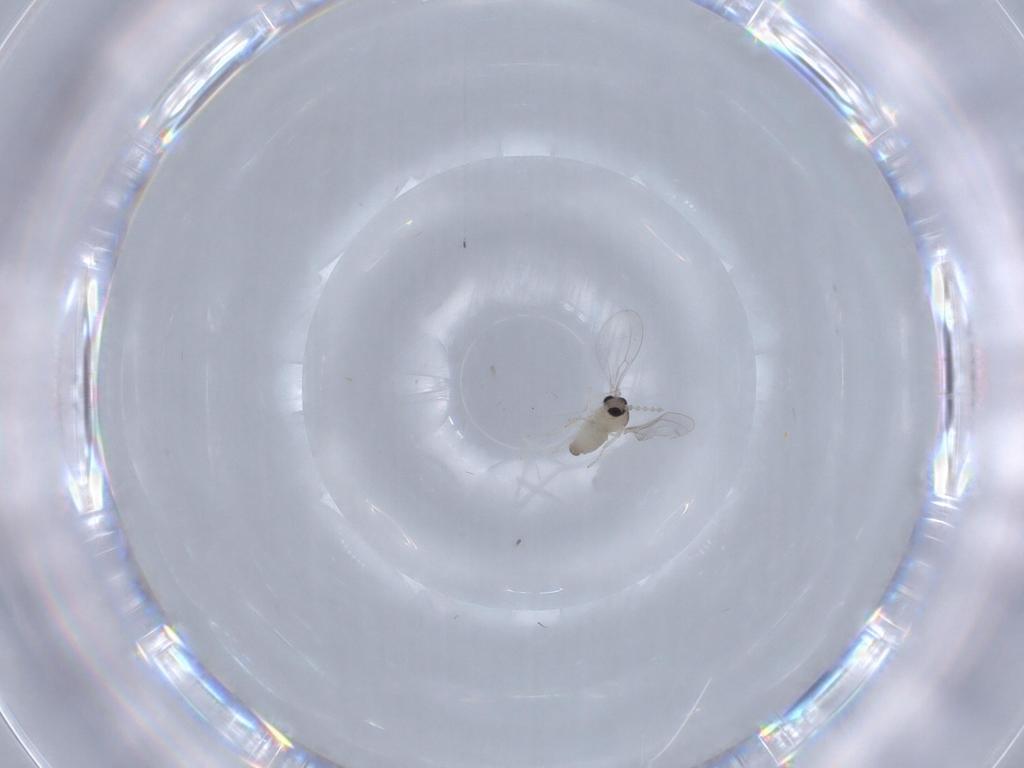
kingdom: Animalia
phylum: Arthropoda
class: Insecta
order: Diptera
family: Cecidomyiidae
